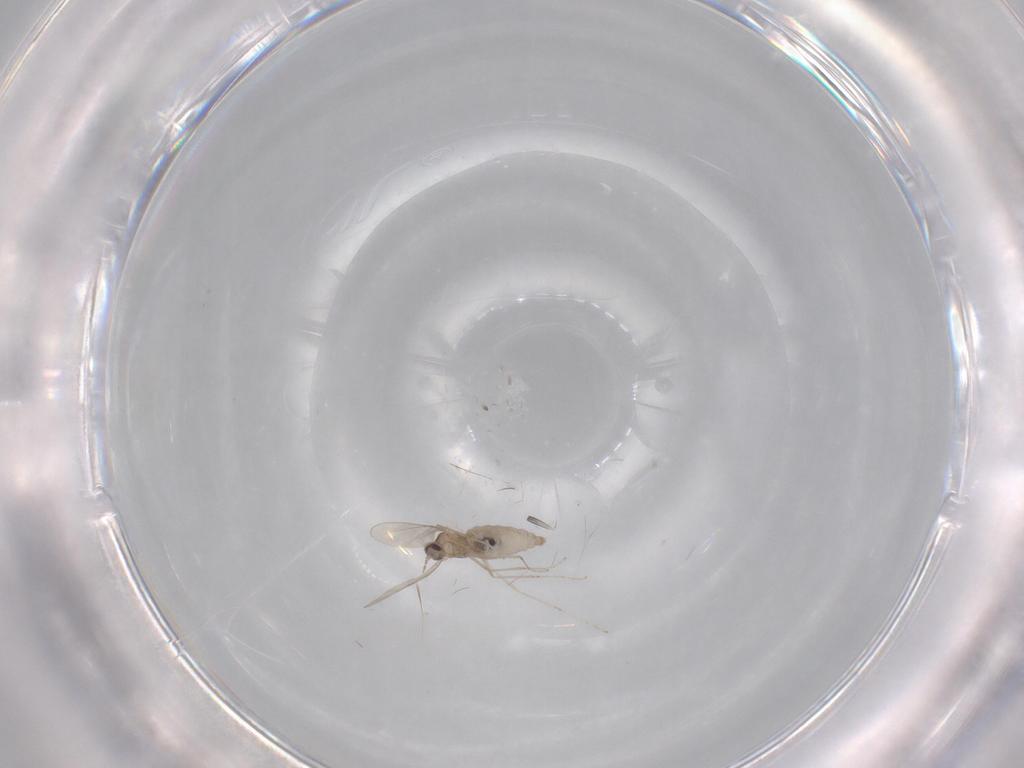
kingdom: Animalia
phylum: Arthropoda
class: Insecta
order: Diptera
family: Cecidomyiidae
